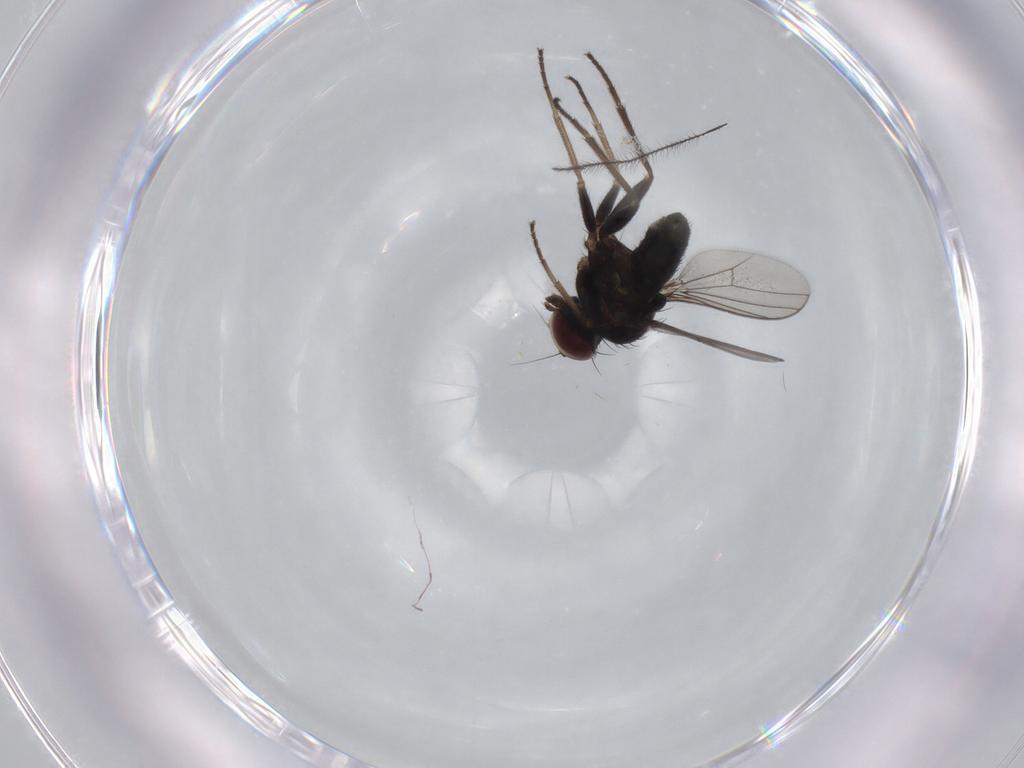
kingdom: Animalia
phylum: Arthropoda
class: Insecta
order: Diptera
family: Dolichopodidae
